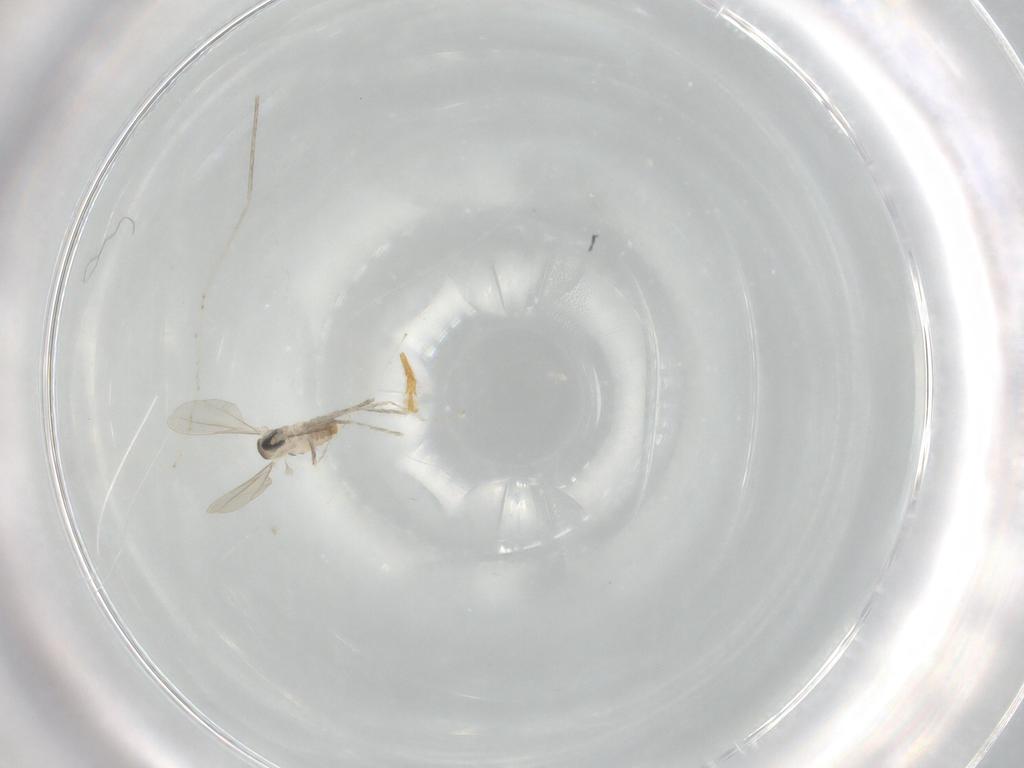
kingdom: Animalia
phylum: Arthropoda
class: Insecta
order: Diptera
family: Cecidomyiidae
